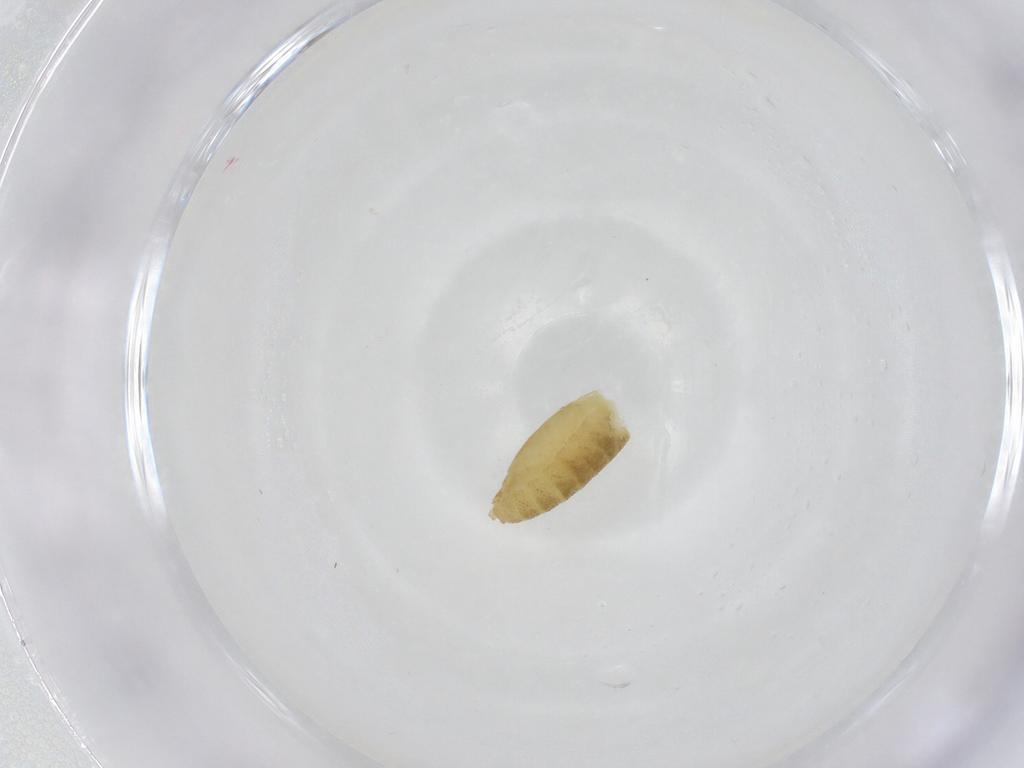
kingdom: Animalia
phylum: Arthropoda
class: Insecta
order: Diptera
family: Chironomidae
